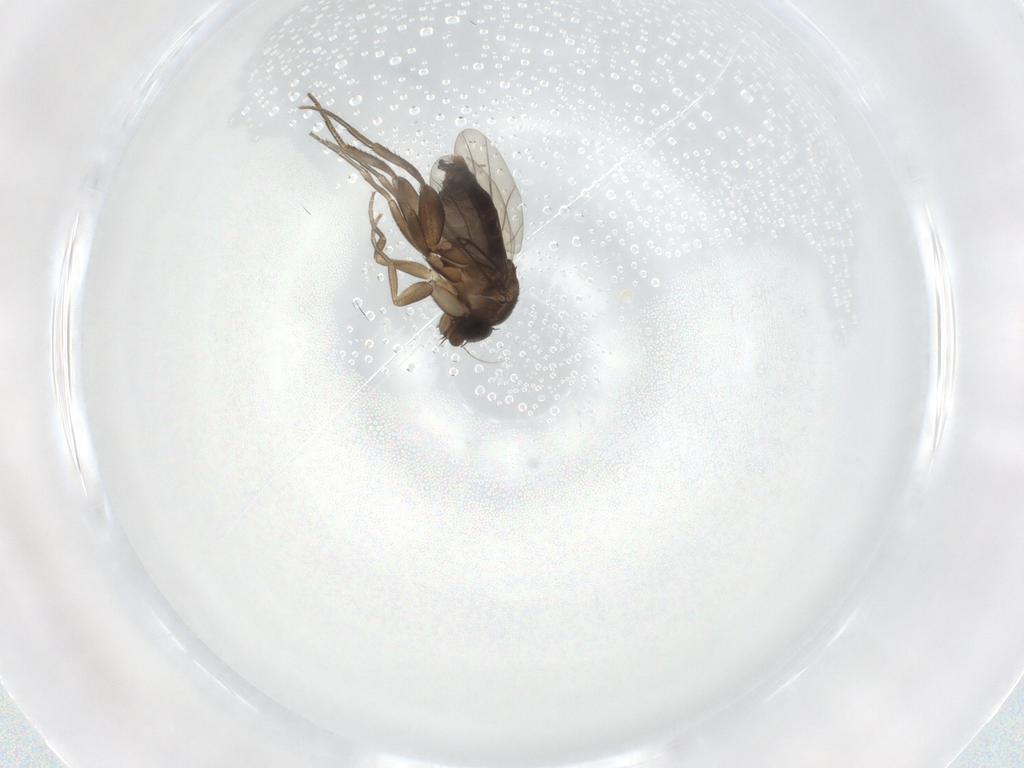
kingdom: Animalia
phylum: Arthropoda
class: Insecta
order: Diptera
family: Phoridae
